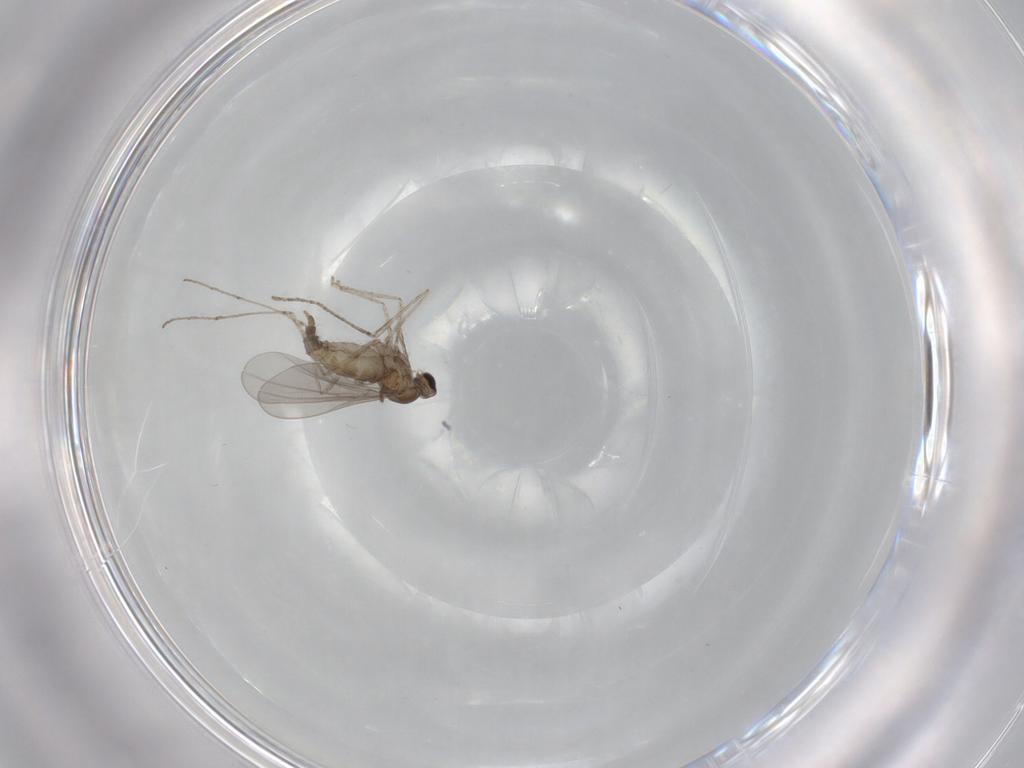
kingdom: Animalia
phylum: Arthropoda
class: Insecta
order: Diptera
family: Cecidomyiidae
